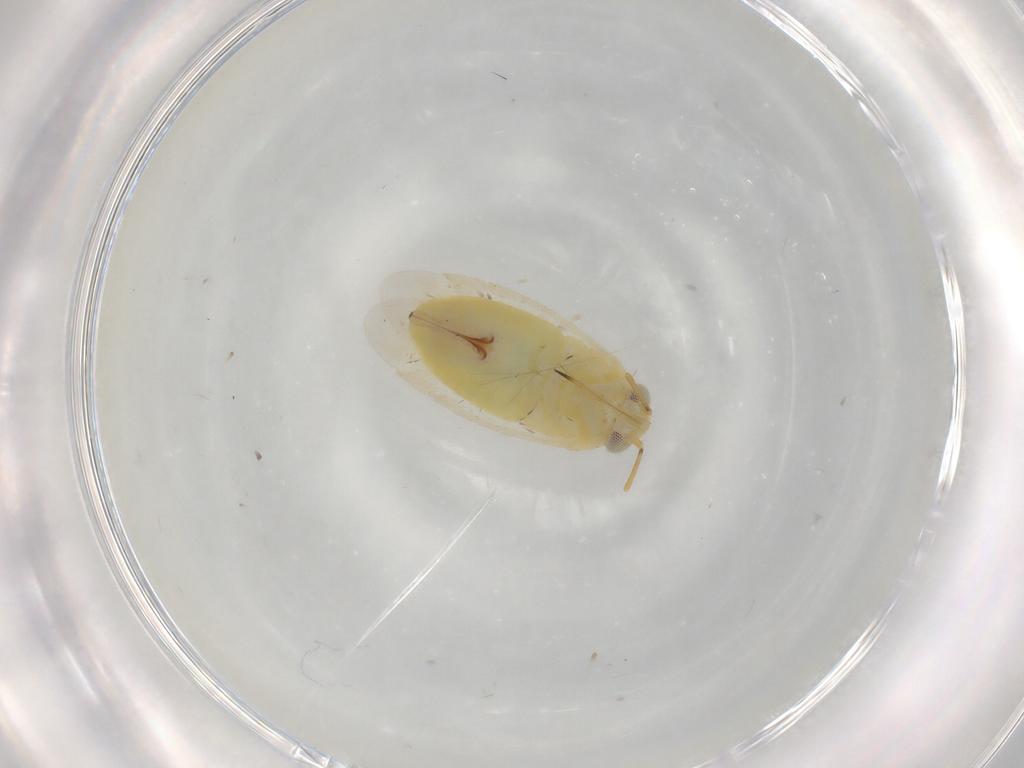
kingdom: Animalia
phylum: Arthropoda
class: Insecta
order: Hemiptera
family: Miridae
